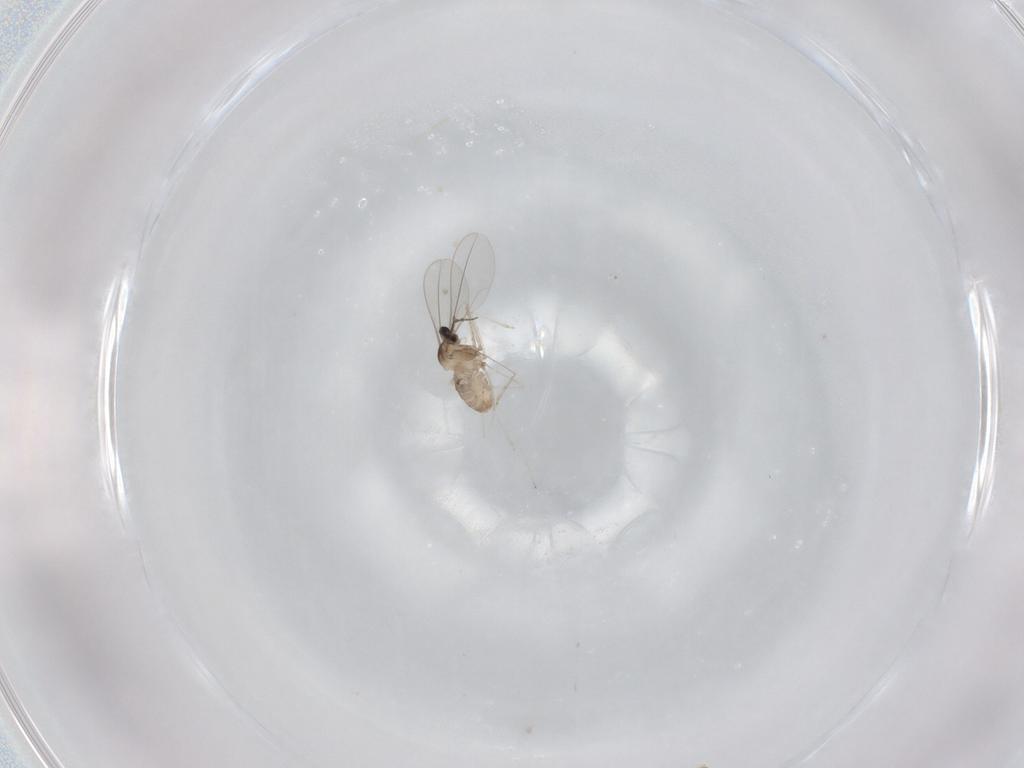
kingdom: Animalia
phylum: Arthropoda
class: Insecta
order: Diptera
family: Cecidomyiidae
